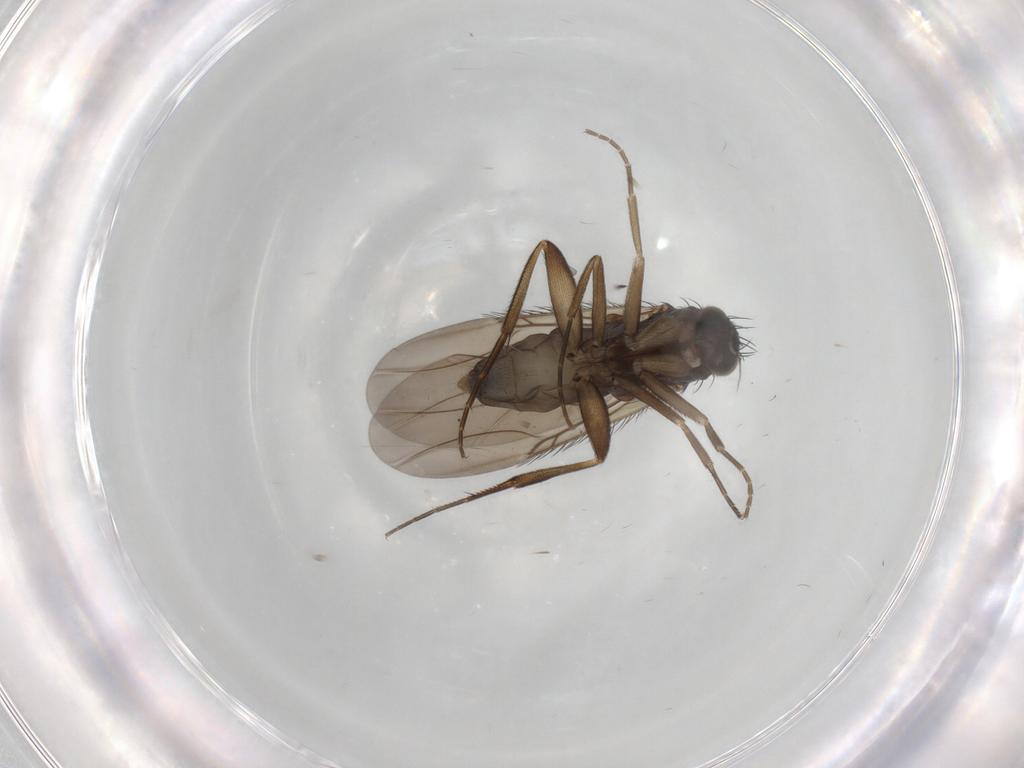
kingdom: Animalia
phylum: Arthropoda
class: Insecta
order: Diptera
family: Phoridae
